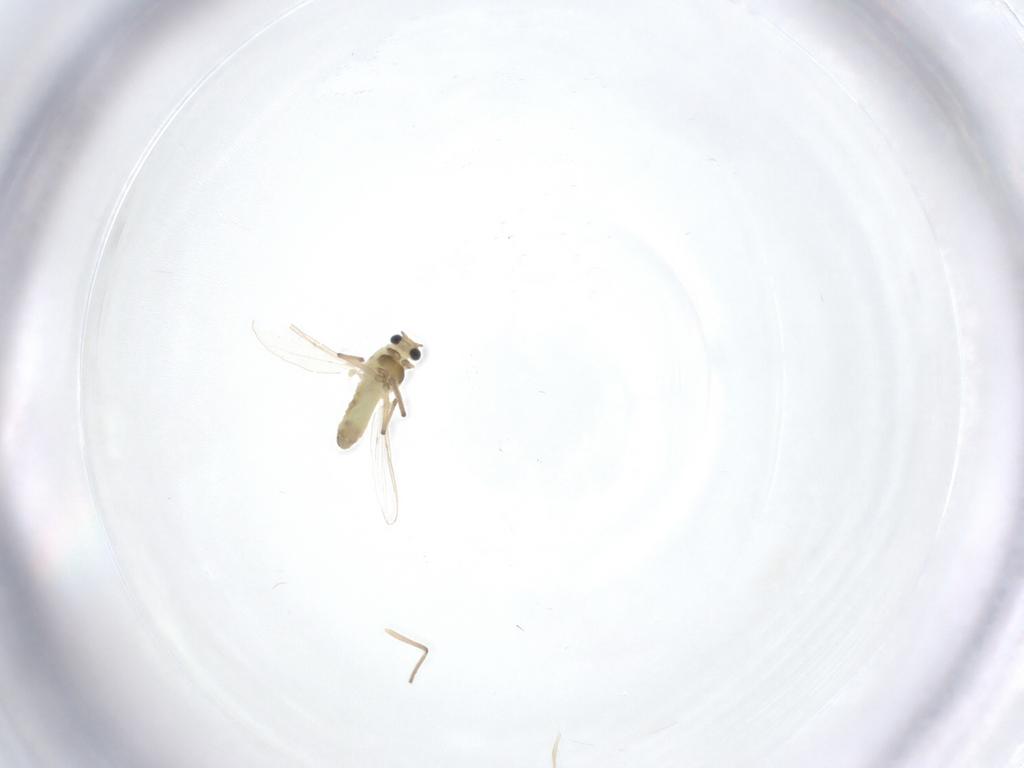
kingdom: Animalia
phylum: Arthropoda
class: Insecta
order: Diptera
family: Chironomidae
